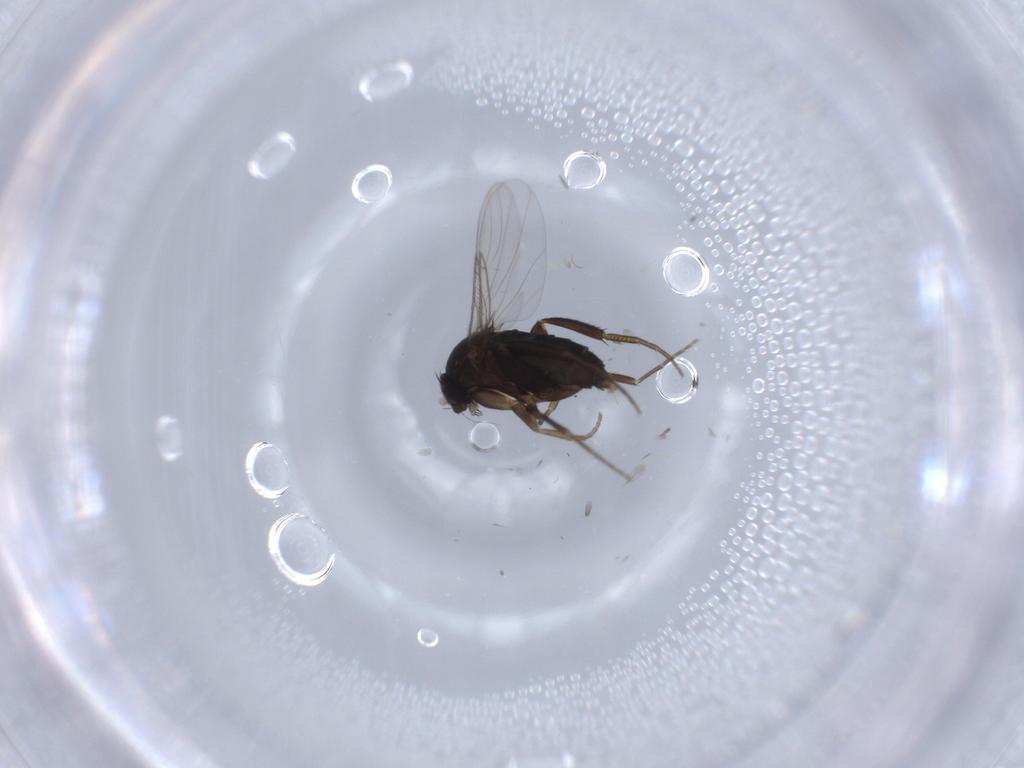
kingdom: Animalia
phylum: Arthropoda
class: Insecta
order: Diptera
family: Phoridae
